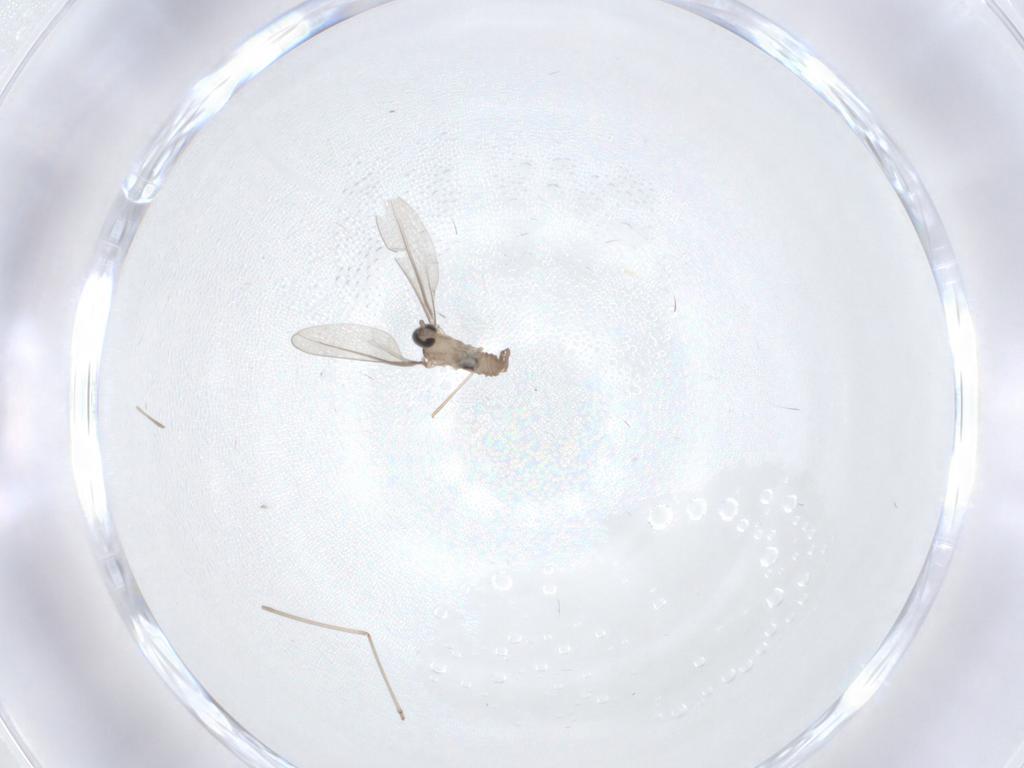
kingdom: Animalia
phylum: Arthropoda
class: Insecta
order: Diptera
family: Cecidomyiidae
